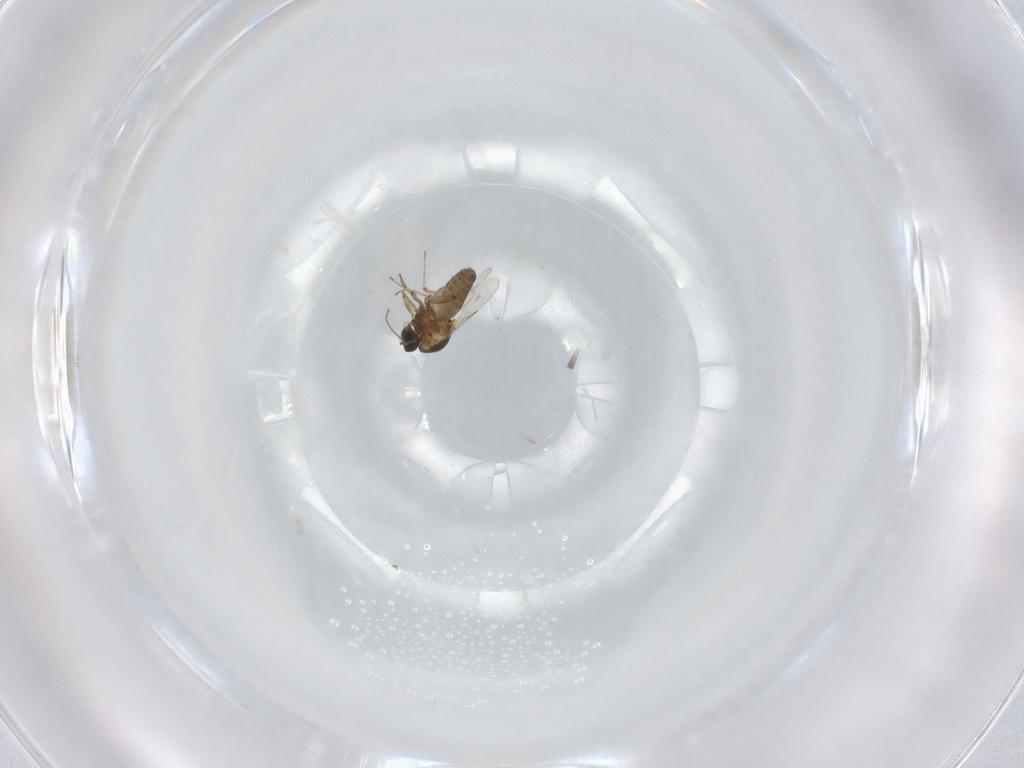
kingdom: Animalia
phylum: Arthropoda
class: Insecta
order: Diptera
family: Ceratopogonidae
